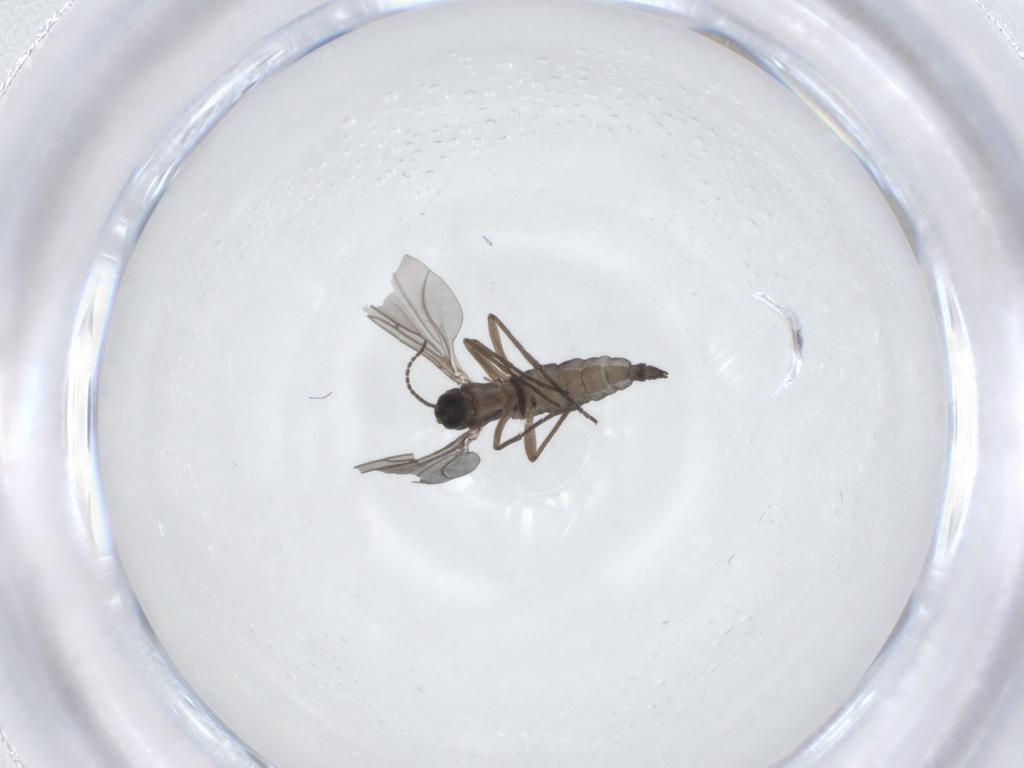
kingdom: Animalia
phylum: Arthropoda
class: Insecta
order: Diptera
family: Sciaridae
